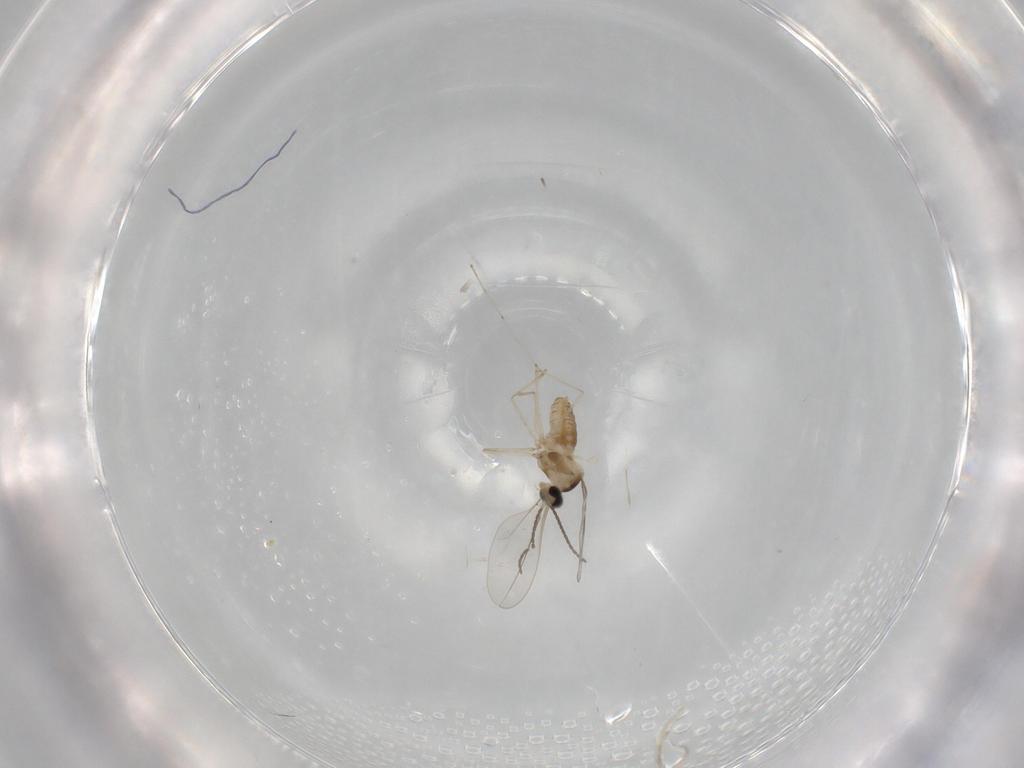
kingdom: Animalia
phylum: Arthropoda
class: Insecta
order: Diptera
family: Cecidomyiidae
